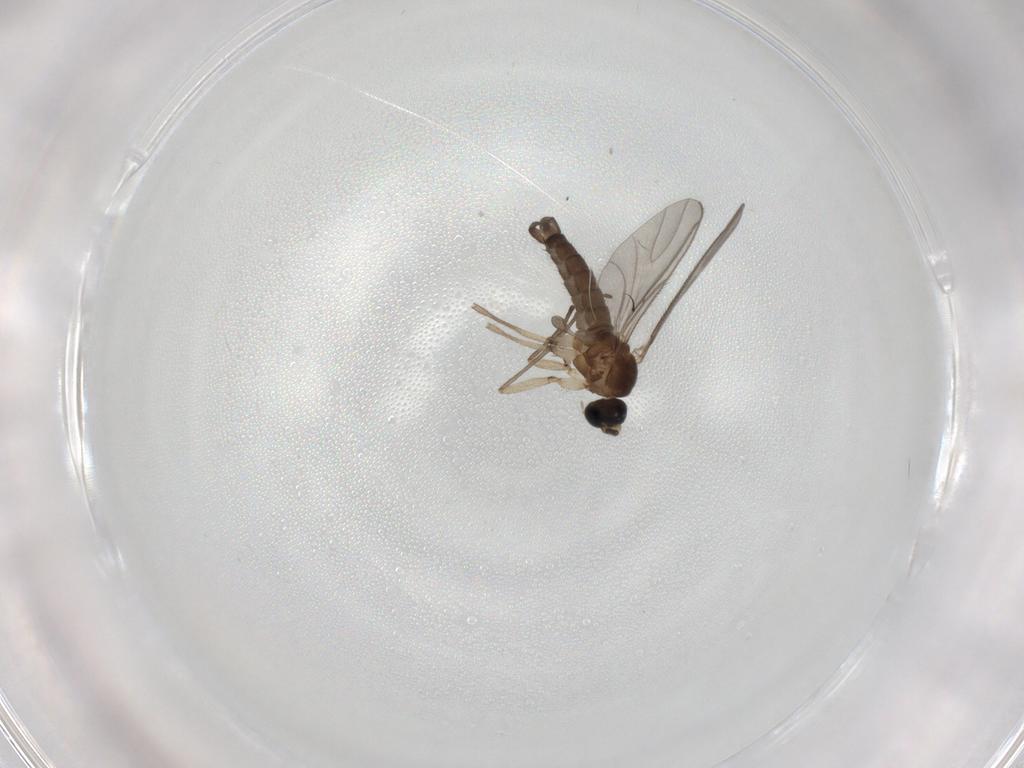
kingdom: Animalia
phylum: Arthropoda
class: Insecta
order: Diptera
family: Sciaridae
